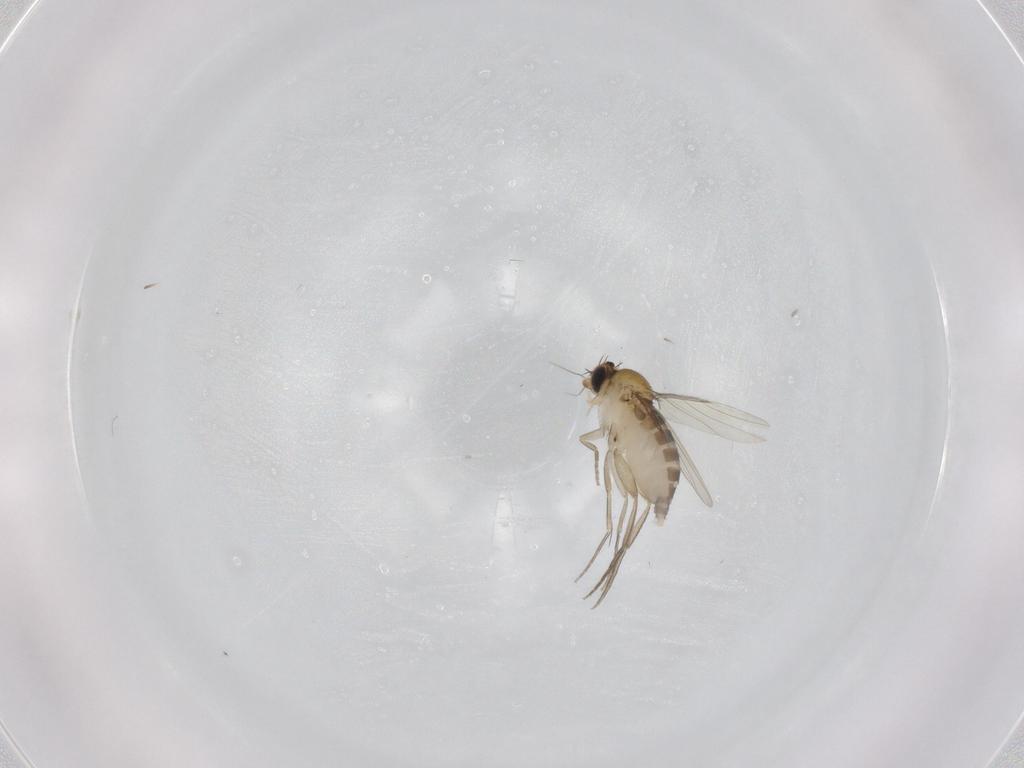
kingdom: Animalia
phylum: Arthropoda
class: Insecta
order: Diptera
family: Phoridae
